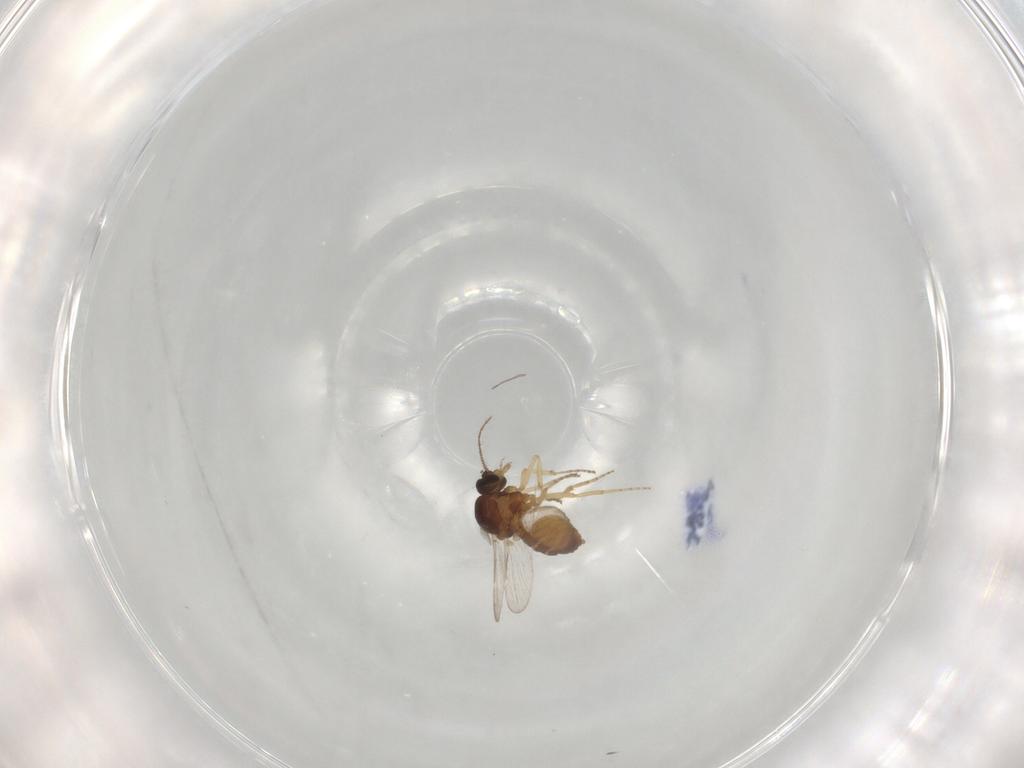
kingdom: Animalia
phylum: Arthropoda
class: Insecta
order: Diptera
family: Ceratopogonidae
